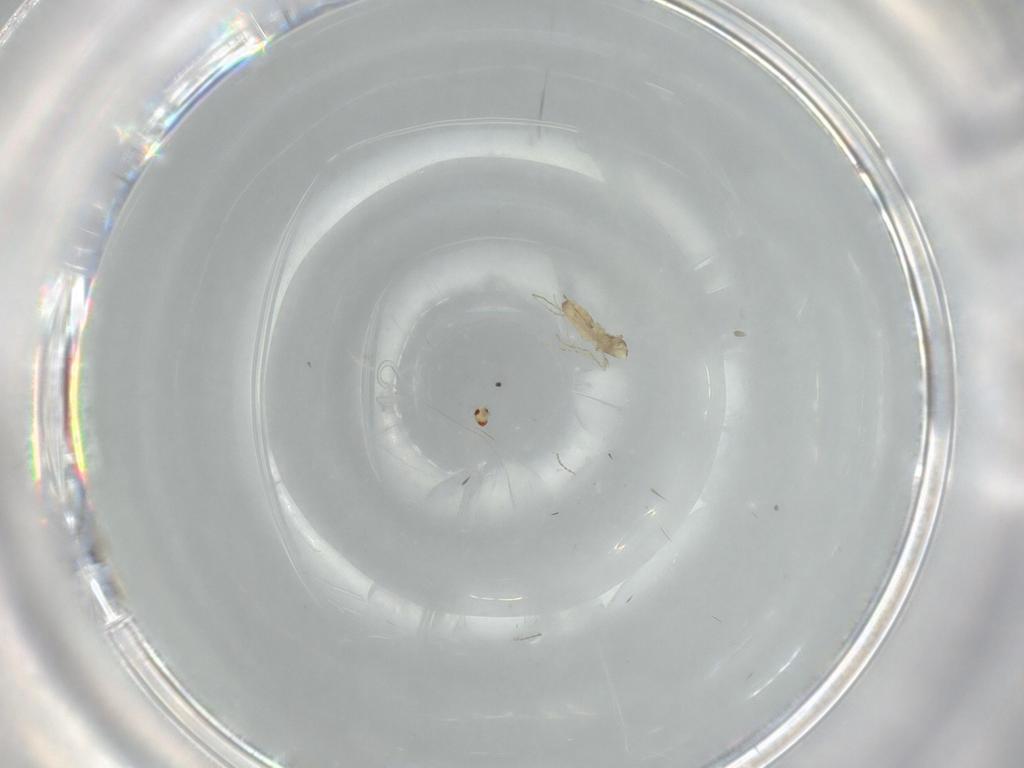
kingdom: Animalia
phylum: Arthropoda
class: Insecta
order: Diptera
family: Cecidomyiidae
